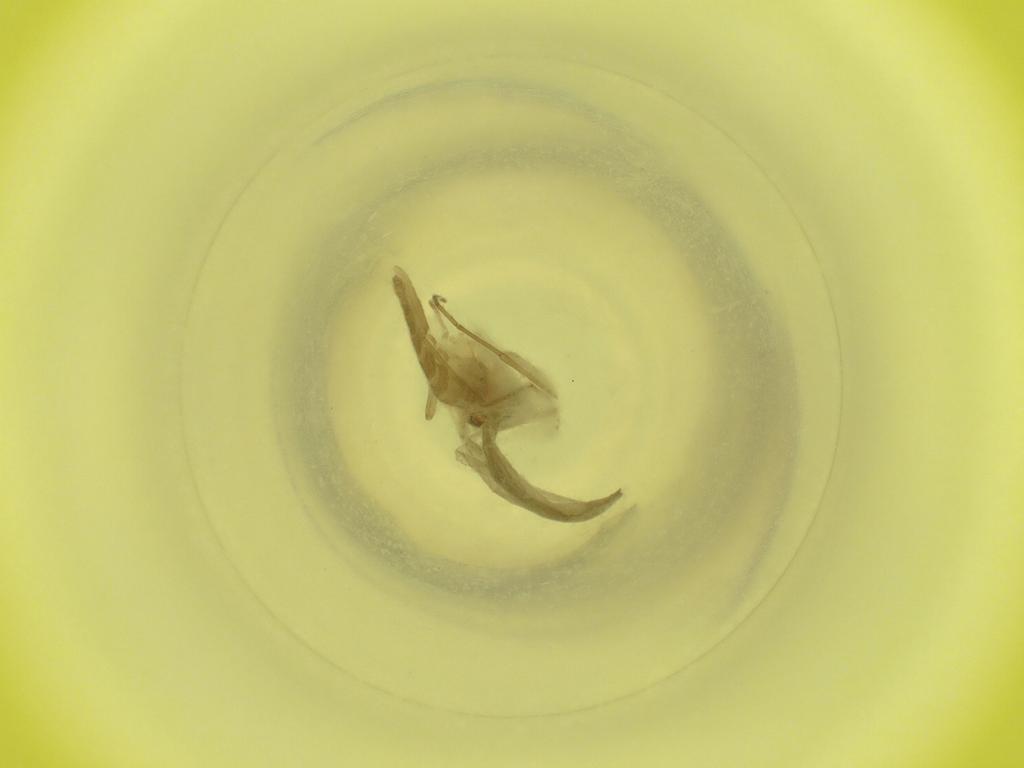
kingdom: Animalia
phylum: Arthropoda
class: Insecta
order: Diptera
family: Cecidomyiidae
